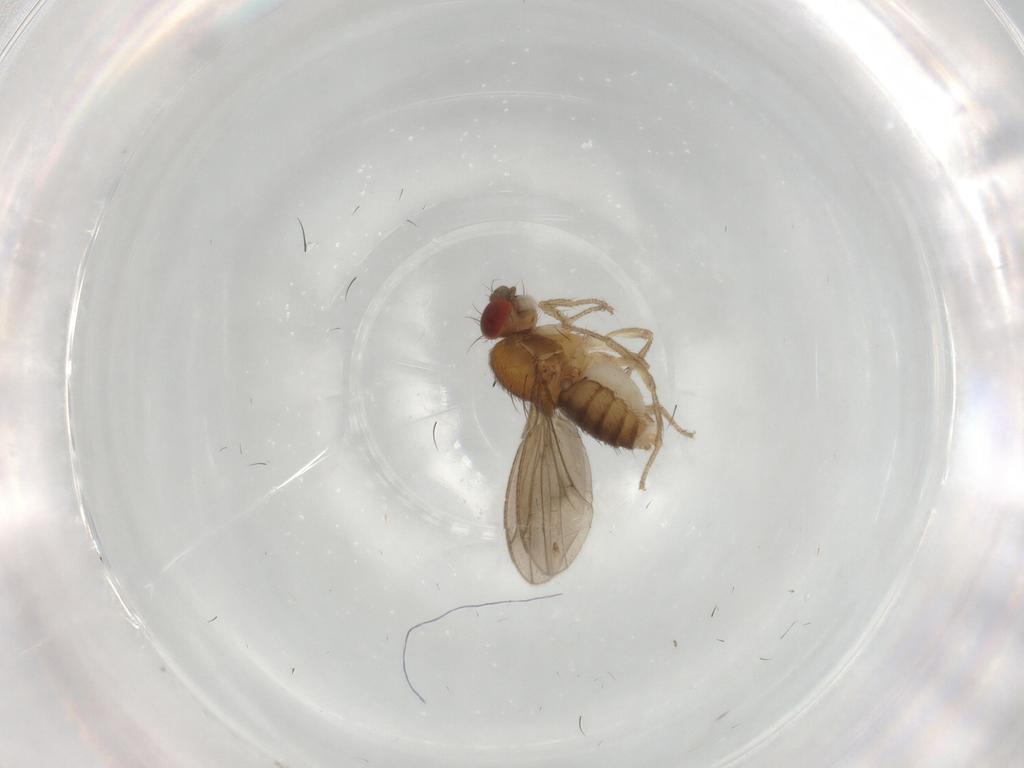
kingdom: Animalia
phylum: Arthropoda
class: Insecta
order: Diptera
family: Drosophilidae
